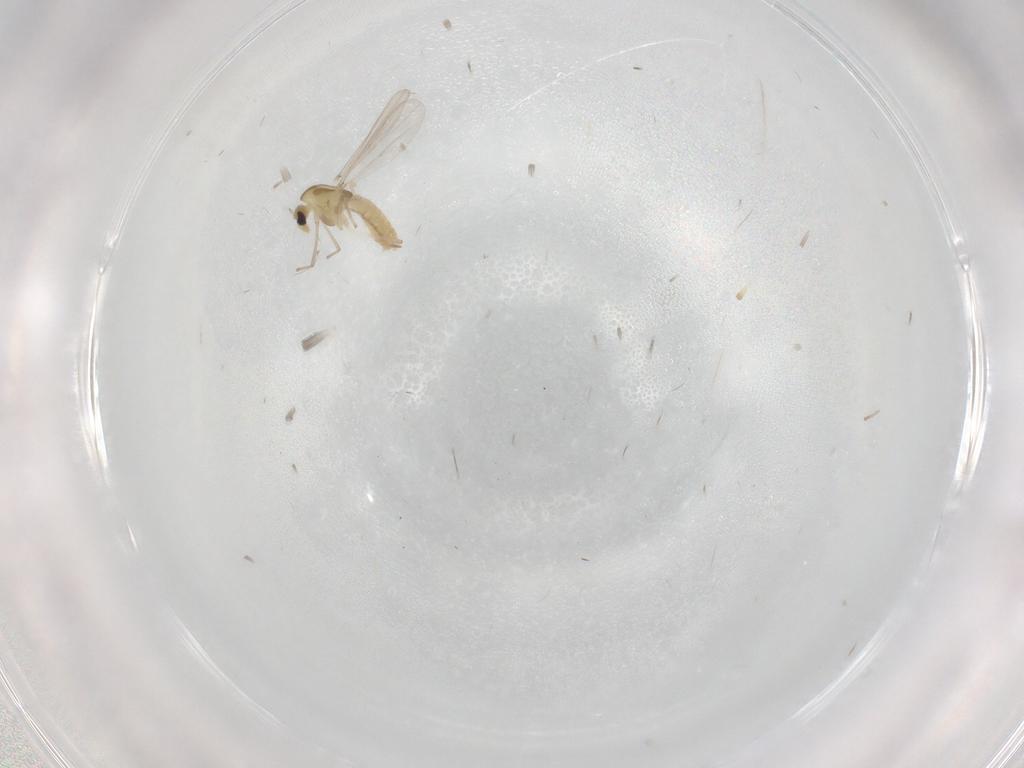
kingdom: Animalia
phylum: Arthropoda
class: Insecta
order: Diptera
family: Chironomidae
